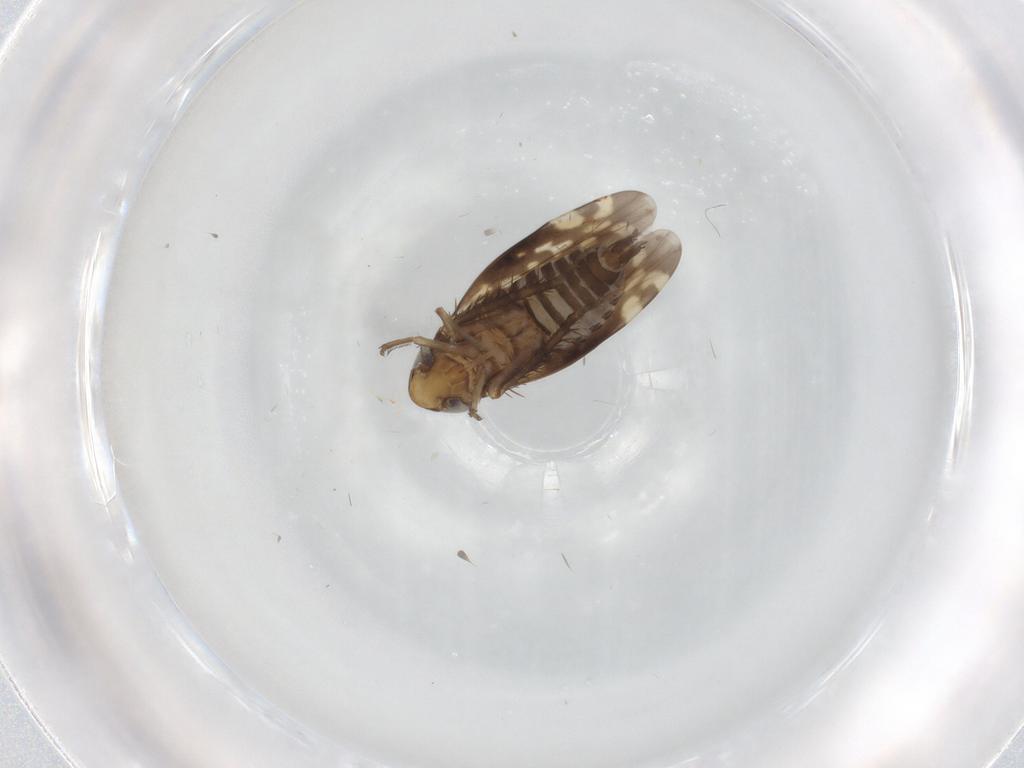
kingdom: Animalia
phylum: Arthropoda
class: Insecta
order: Hemiptera
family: Cicadellidae
